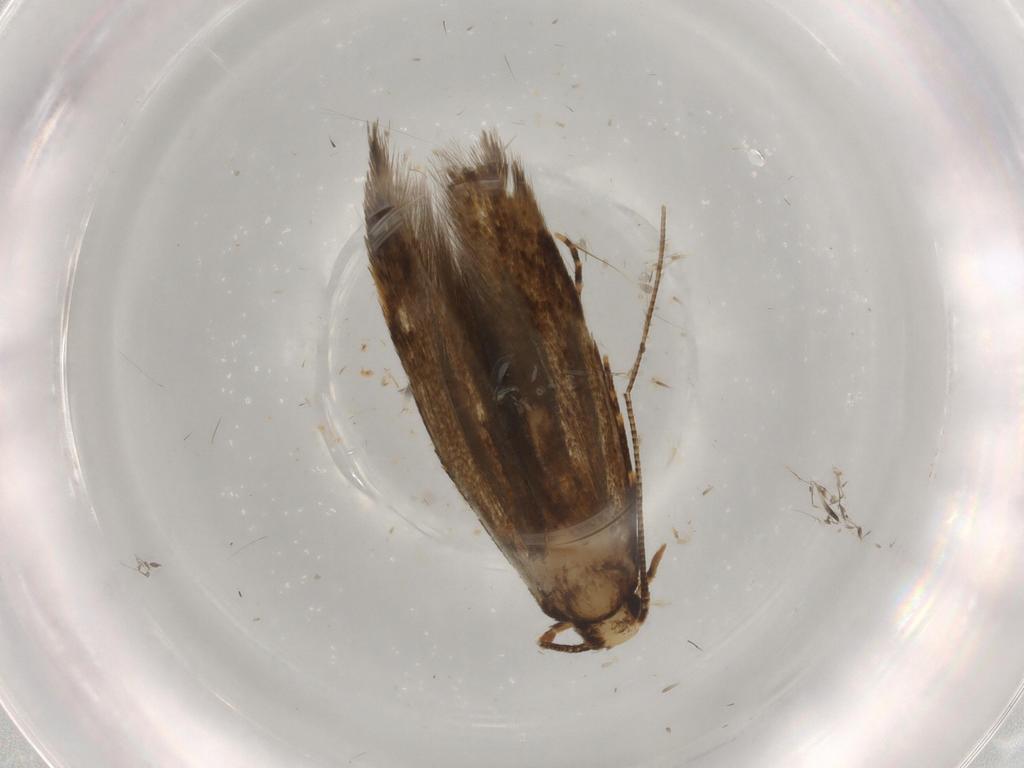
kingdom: Animalia
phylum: Arthropoda
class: Insecta
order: Lepidoptera
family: Tineidae
